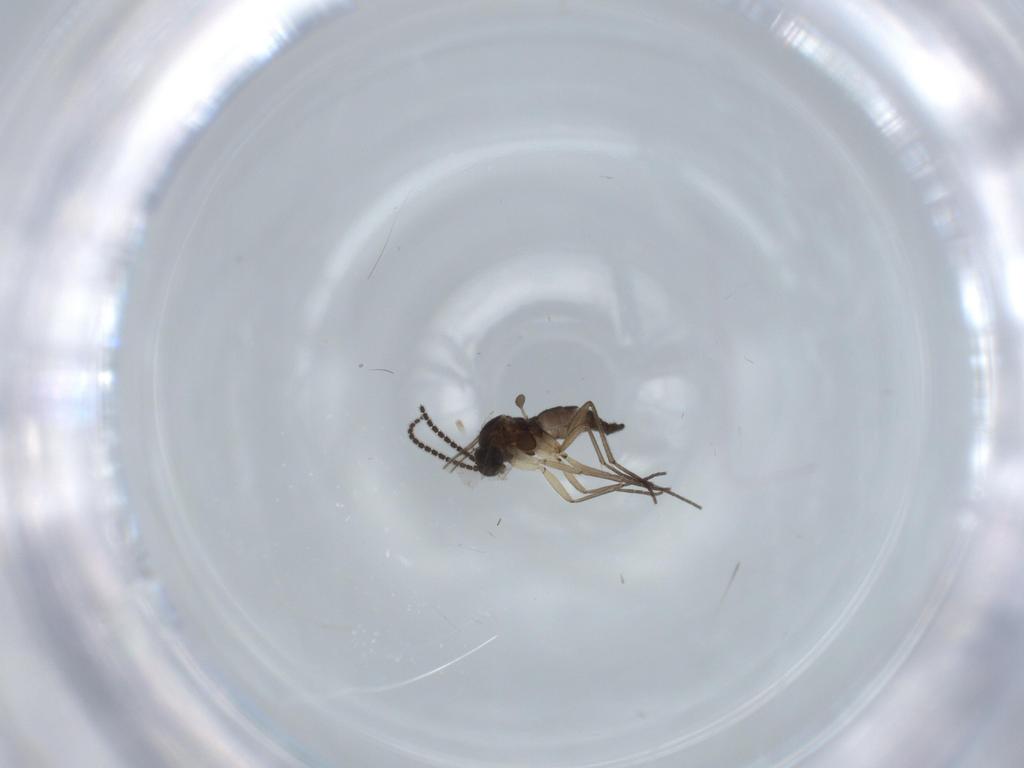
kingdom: Animalia
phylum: Arthropoda
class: Insecta
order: Diptera
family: Sciaridae
